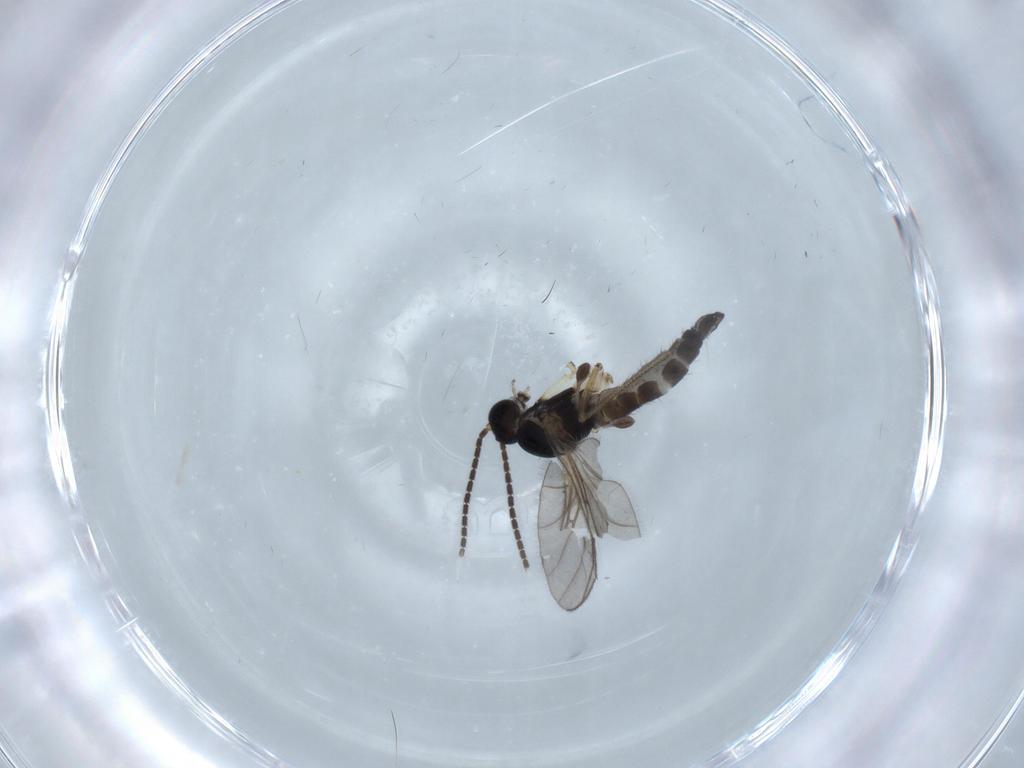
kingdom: Animalia
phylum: Arthropoda
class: Insecta
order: Diptera
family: Sciaridae
